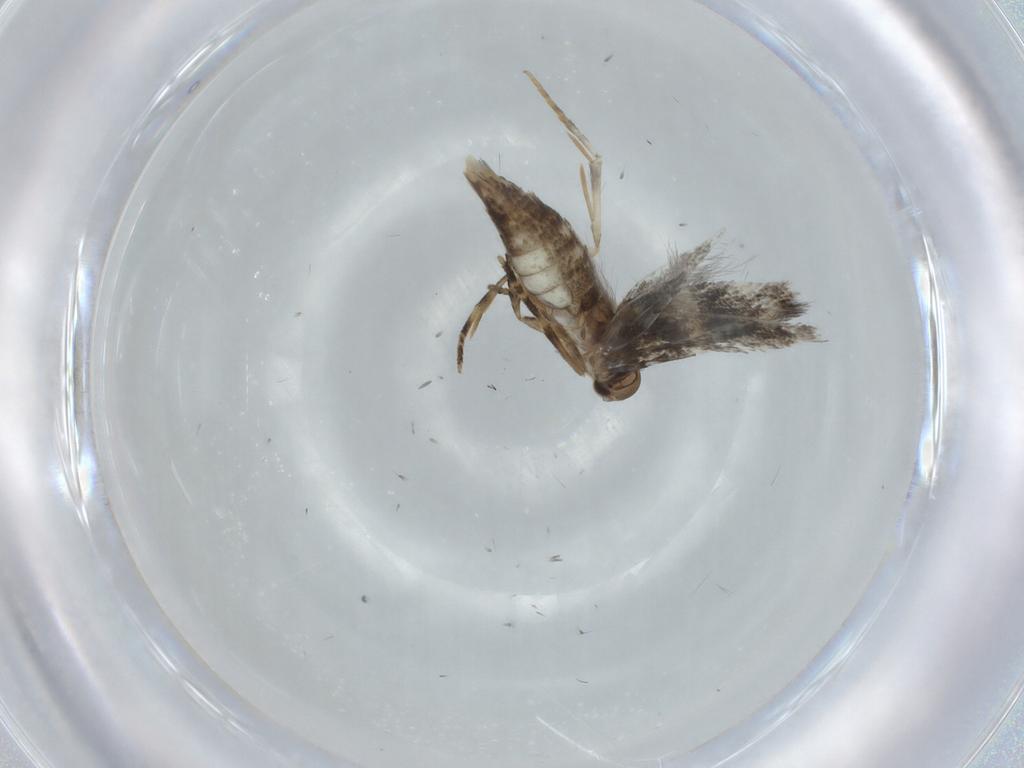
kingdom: Animalia
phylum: Arthropoda
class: Insecta
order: Lepidoptera
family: Elachistidae
